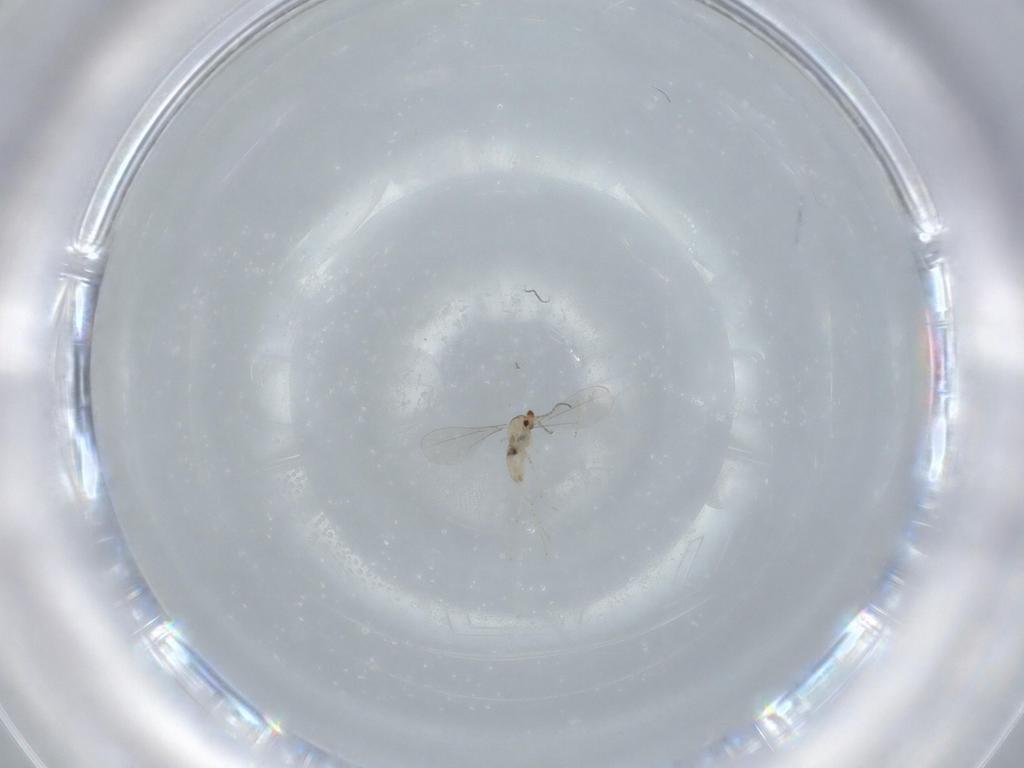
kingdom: Animalia
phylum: Arthropoda
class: Insecta
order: Diptera
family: Cecidomyiidae
